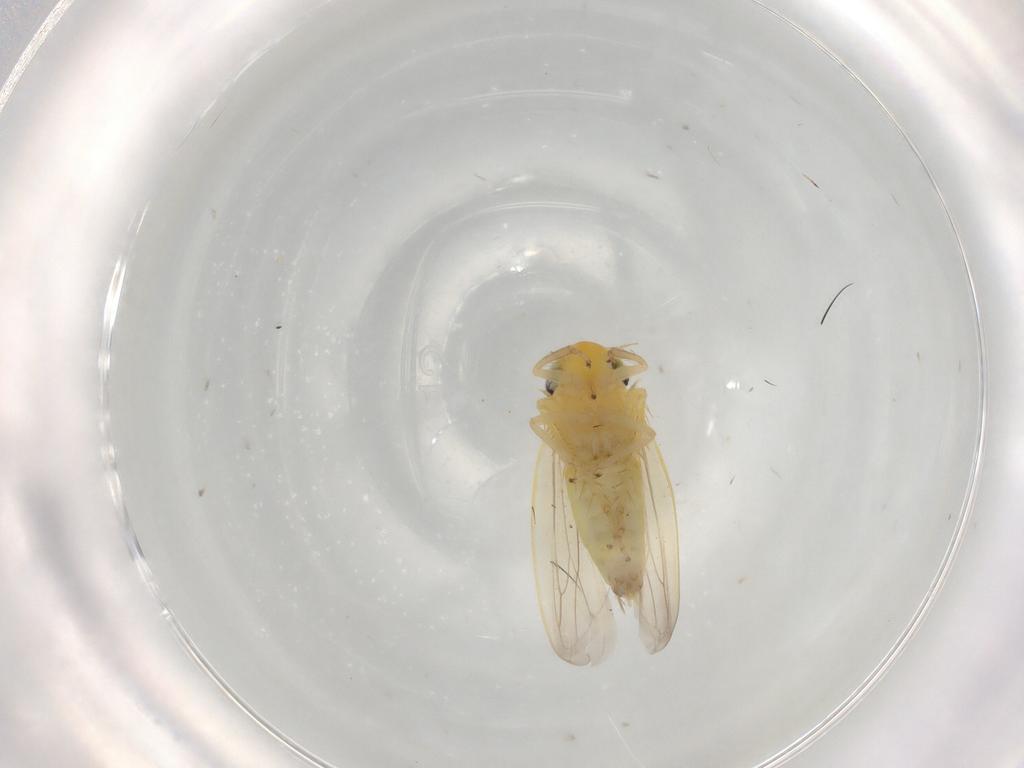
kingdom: Animalia
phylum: Arthropoda
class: Insecta
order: Hemiptera
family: Cicadellidae
